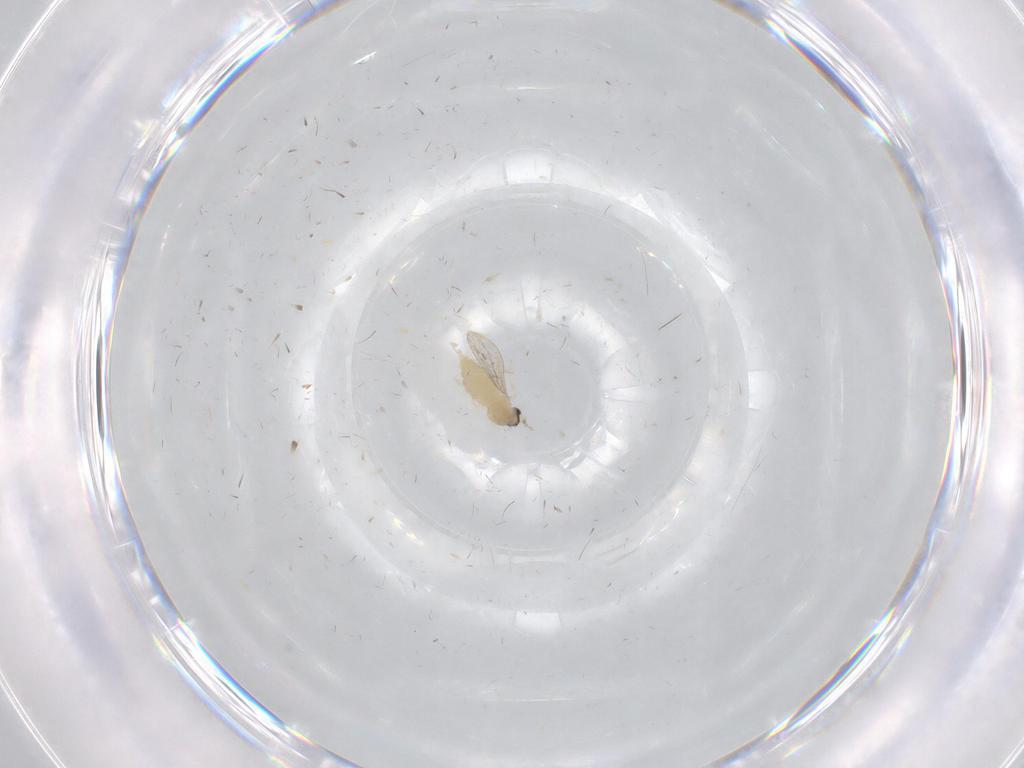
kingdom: Animalia
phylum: Arthropoda
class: Insecta
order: Diptera
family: Cecidomyiidae
